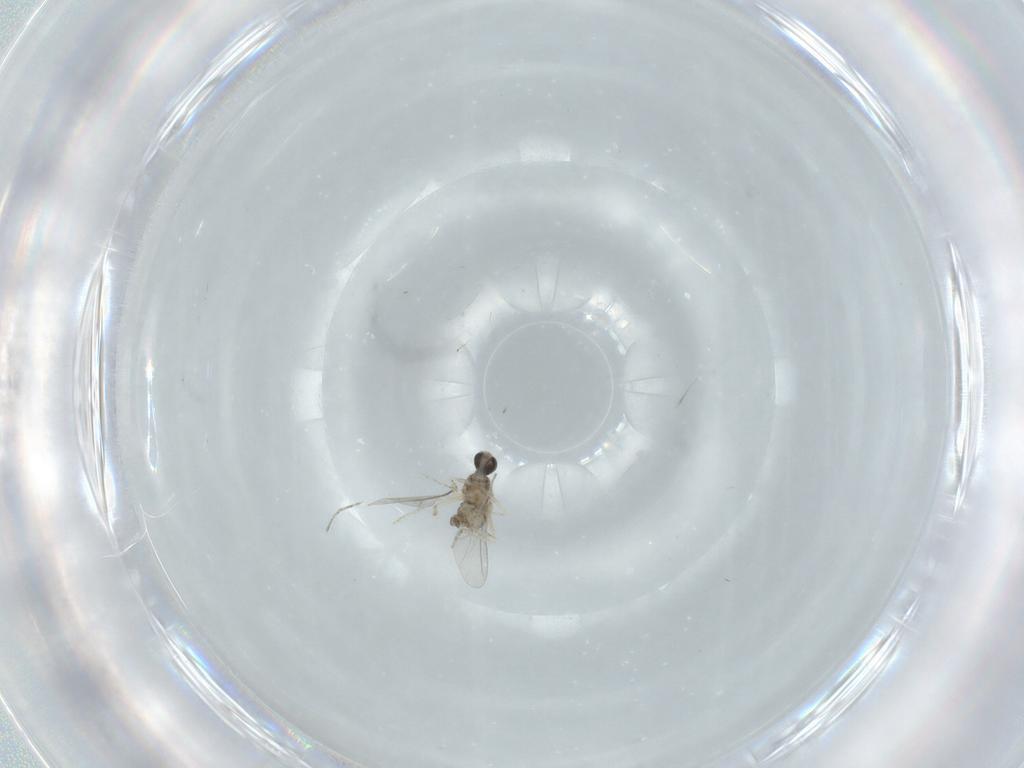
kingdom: Animalia
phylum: Arthropoda
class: Insecta
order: Diptera
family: Cecidomyiidae
